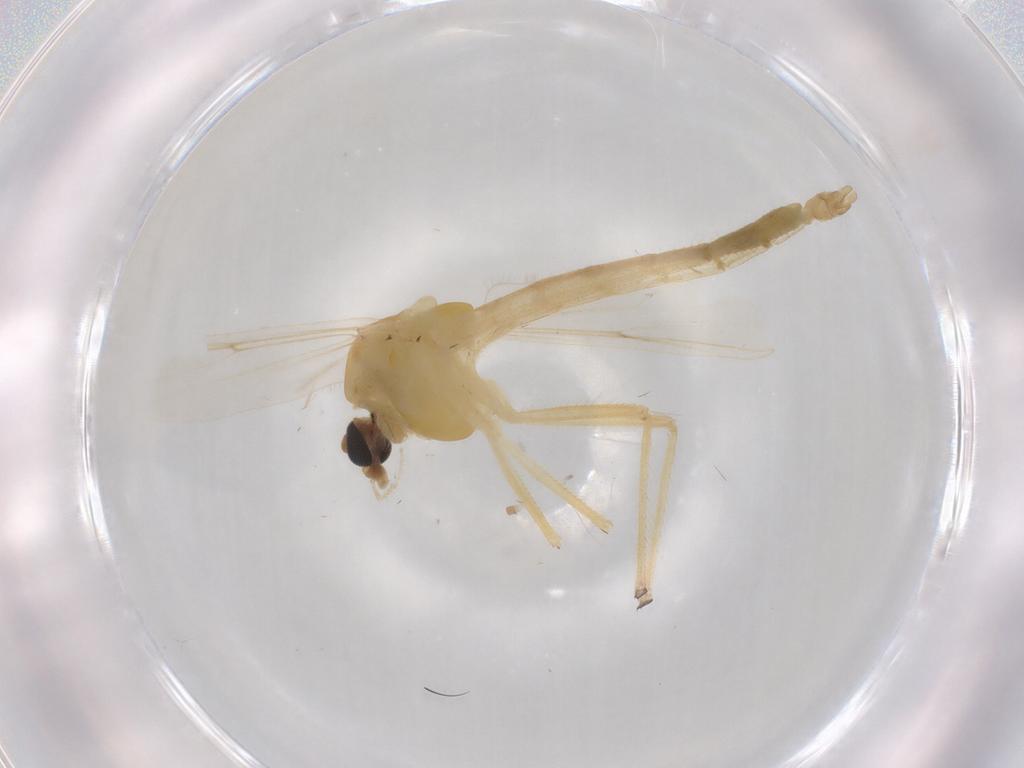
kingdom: Animalia
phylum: Arthropoda
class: Insecta
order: Diptera
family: Chironomidae
